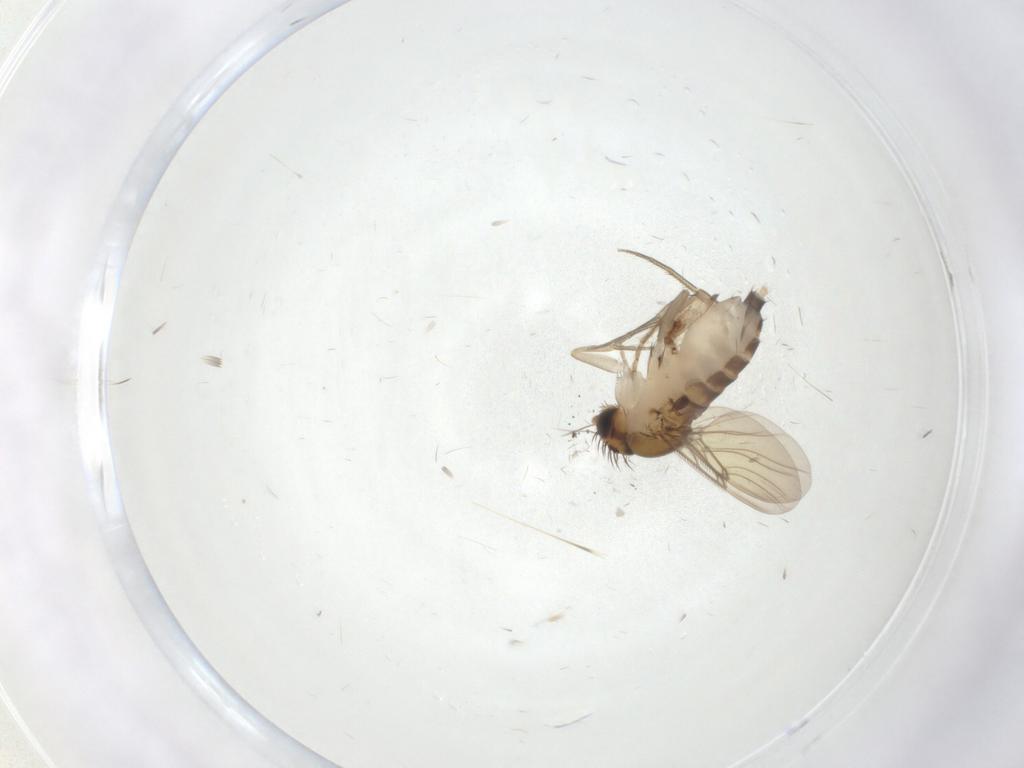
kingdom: Animalia
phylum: Arthropoda
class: Insecta
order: Diptera
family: Phoridae
